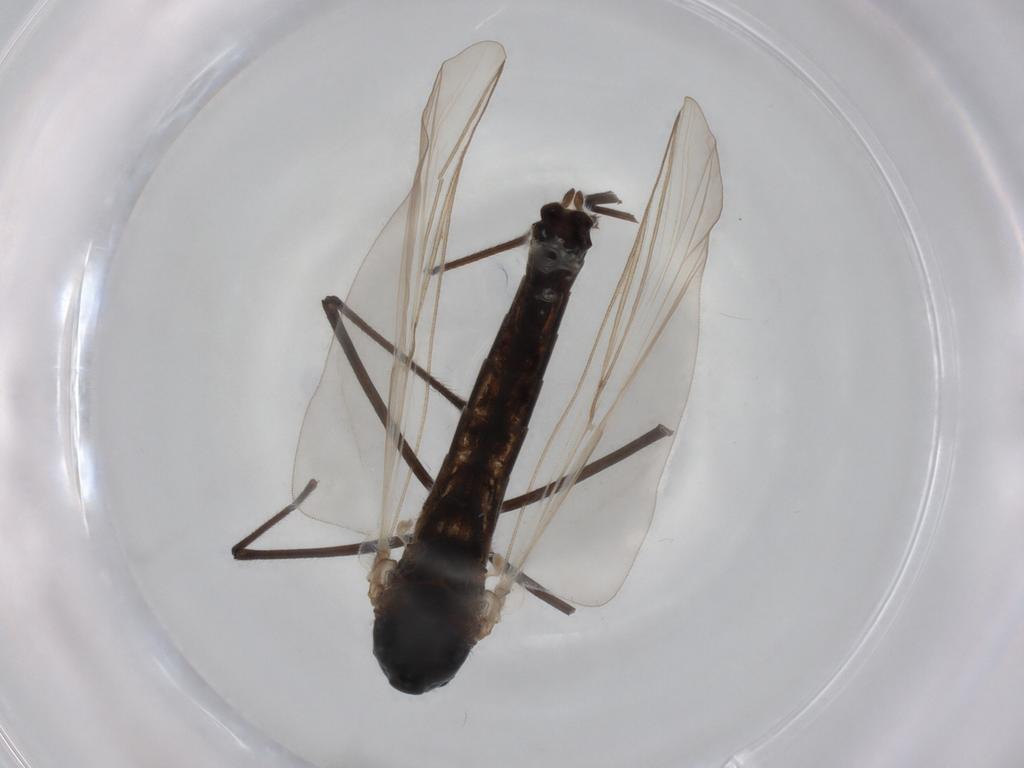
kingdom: Animalia
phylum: Arthropoda
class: Insecta
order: Diptera
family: Chironomidae
